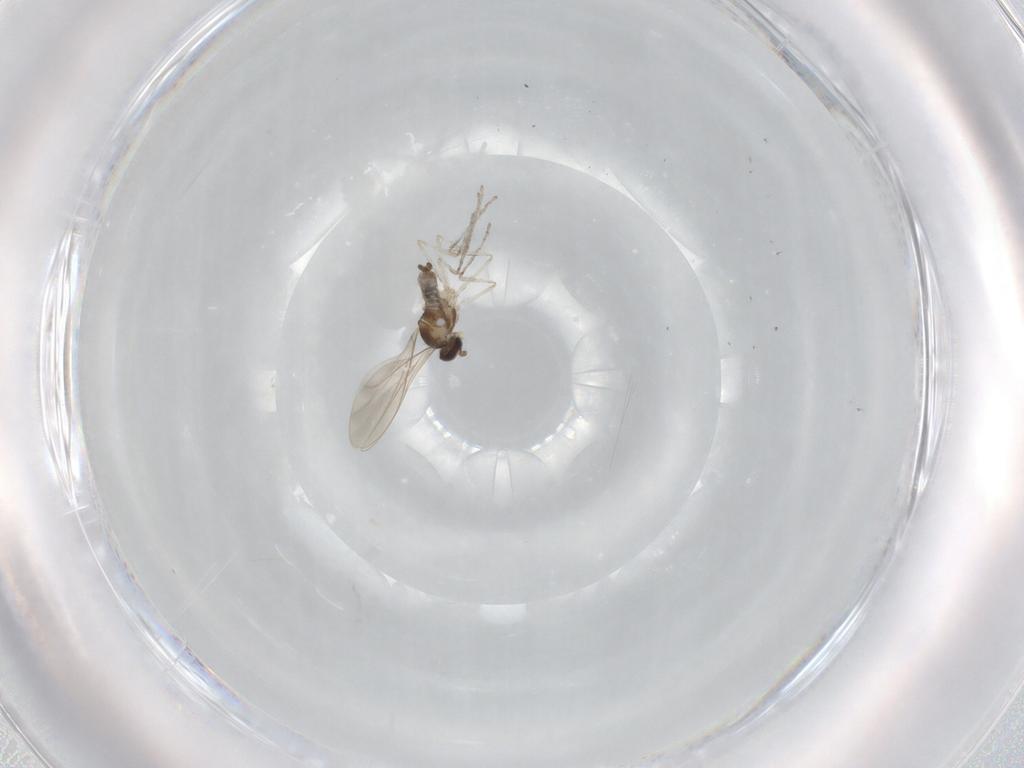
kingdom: Animalia
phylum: Arthropoda
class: Insecta
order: Diptera
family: Cecidomyiidae
